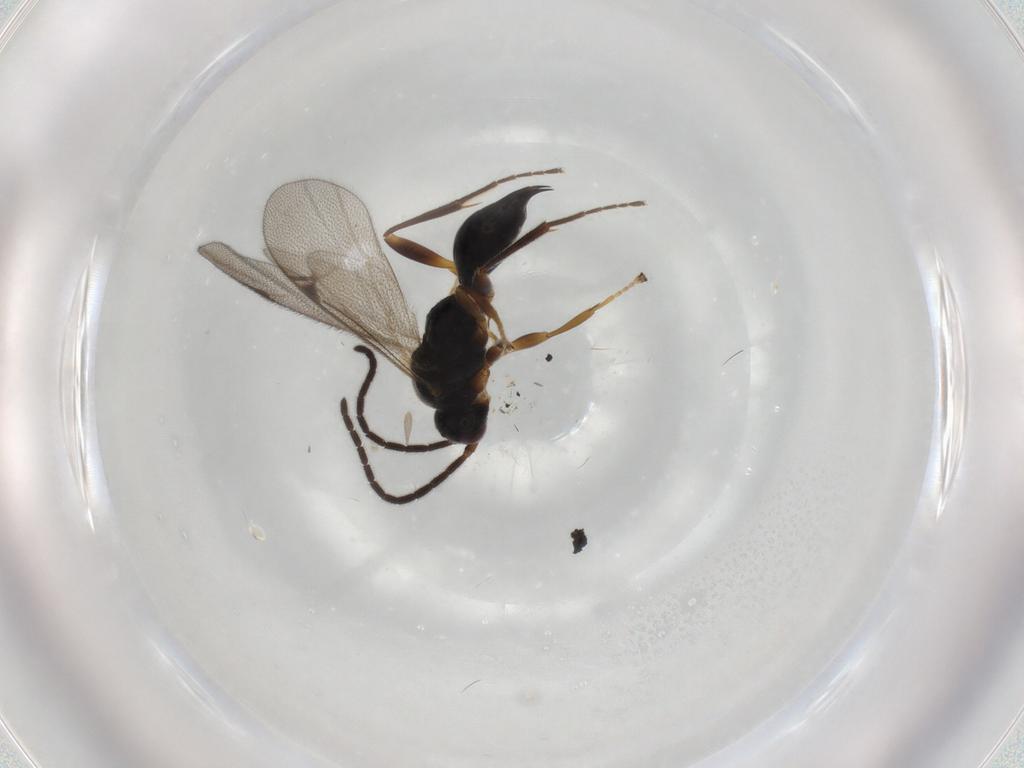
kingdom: Animalia
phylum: Arthropoda
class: Insecta
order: Hymenoptera
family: Proctotrupidae
